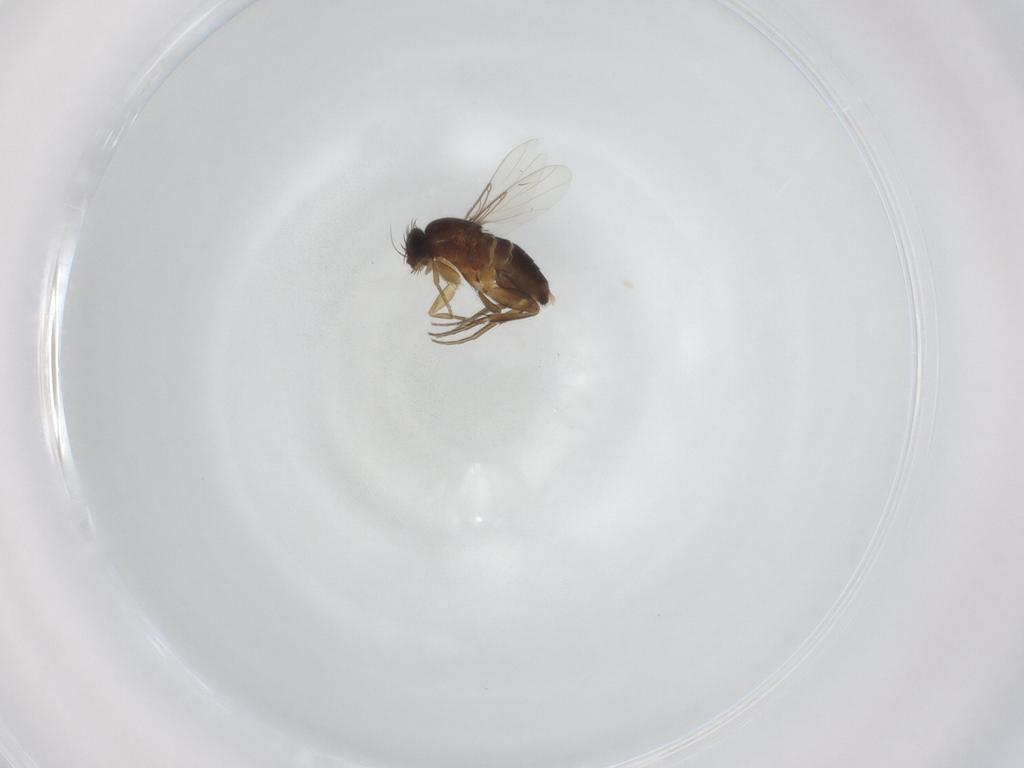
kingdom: Animalia
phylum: Arthropoda
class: Insecta
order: Diptera
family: Phoridae
